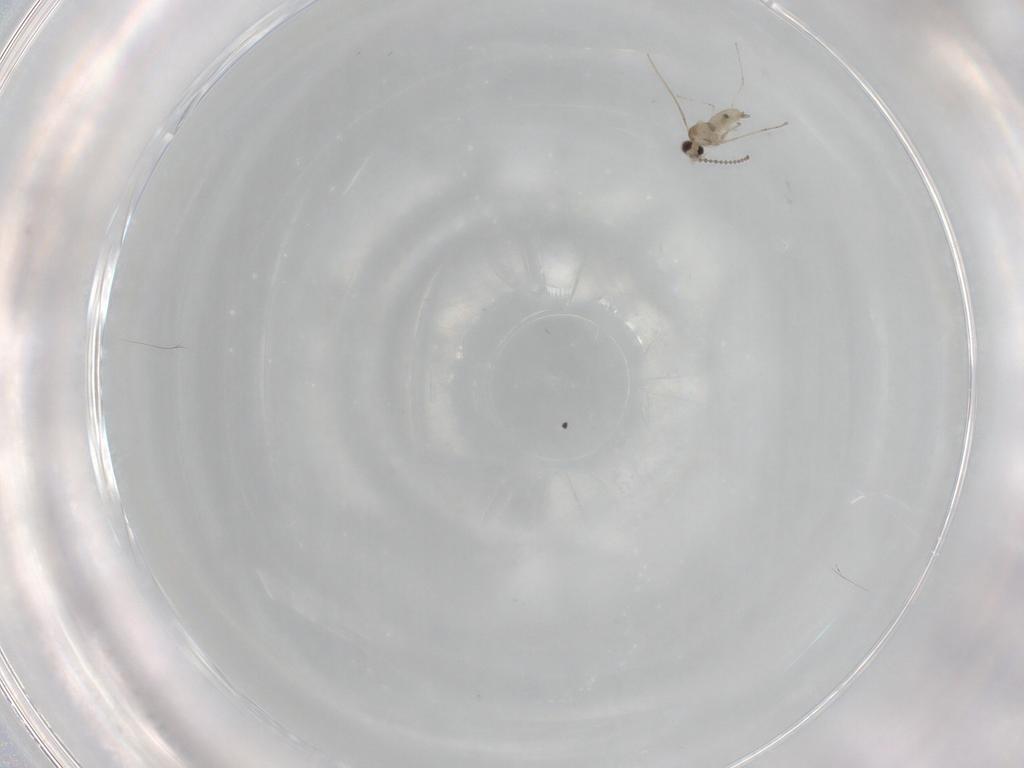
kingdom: Animalia
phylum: Arthropoda
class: Insecta
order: Diptera
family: Cecidomyiidae
